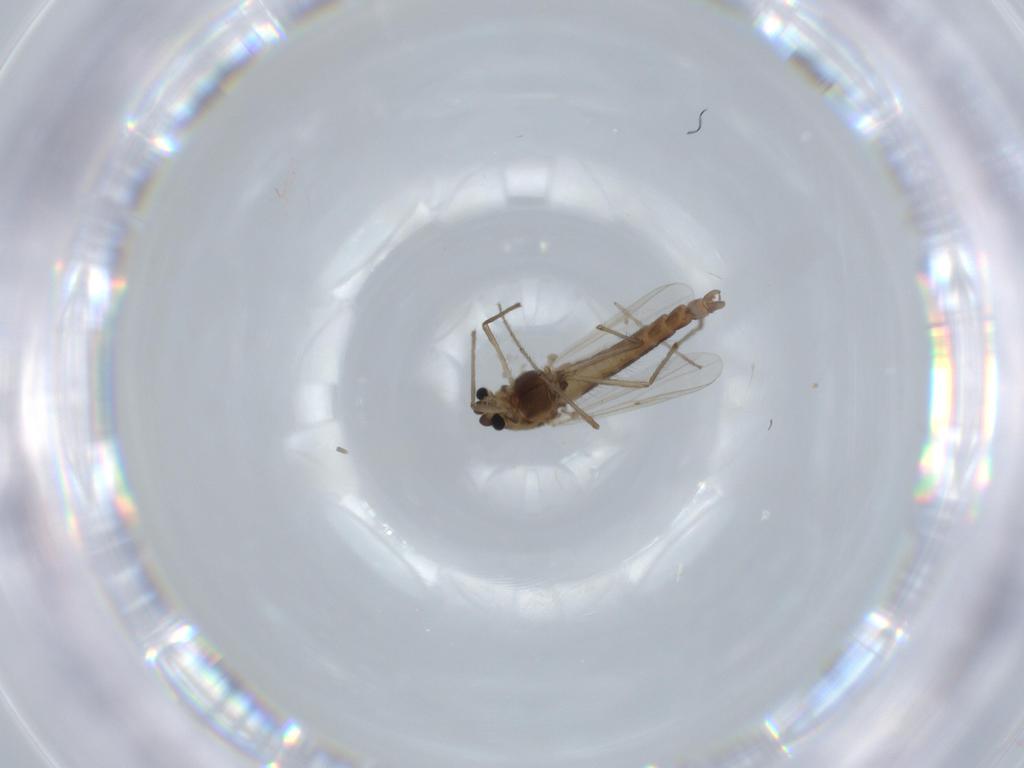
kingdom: Animalia
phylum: Arthropoda
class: Insecta
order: Diptera
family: Chironomidae
